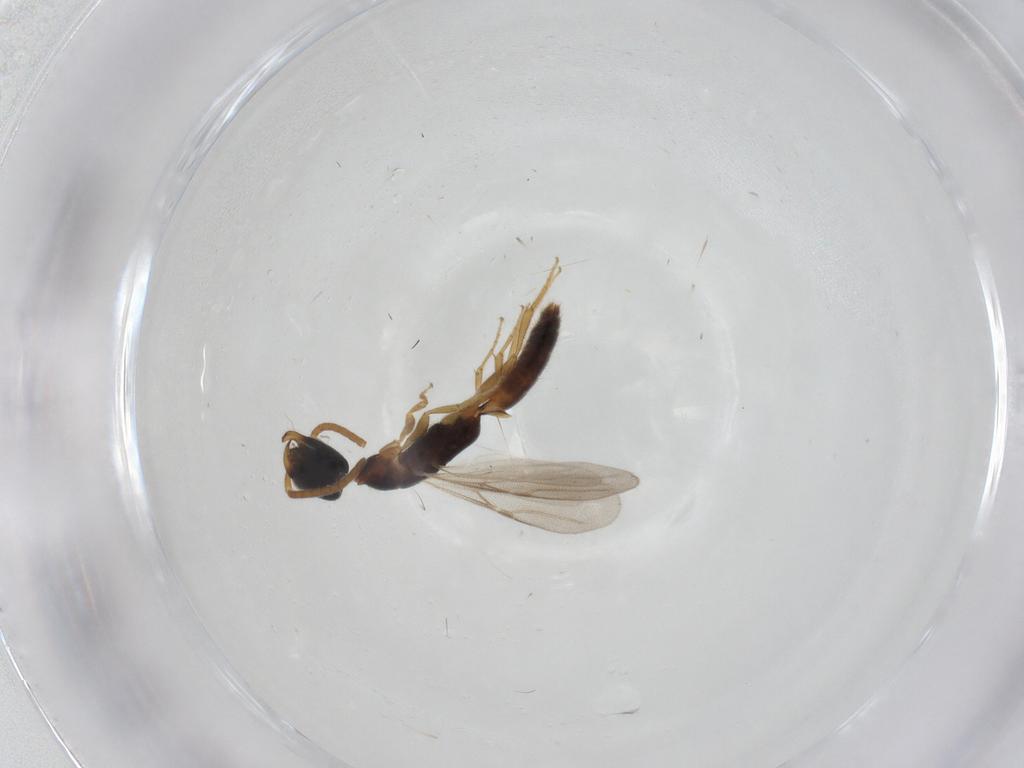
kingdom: Animalia
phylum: Arthropoda
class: Insecta
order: Hymenoptera
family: Bethylidae
